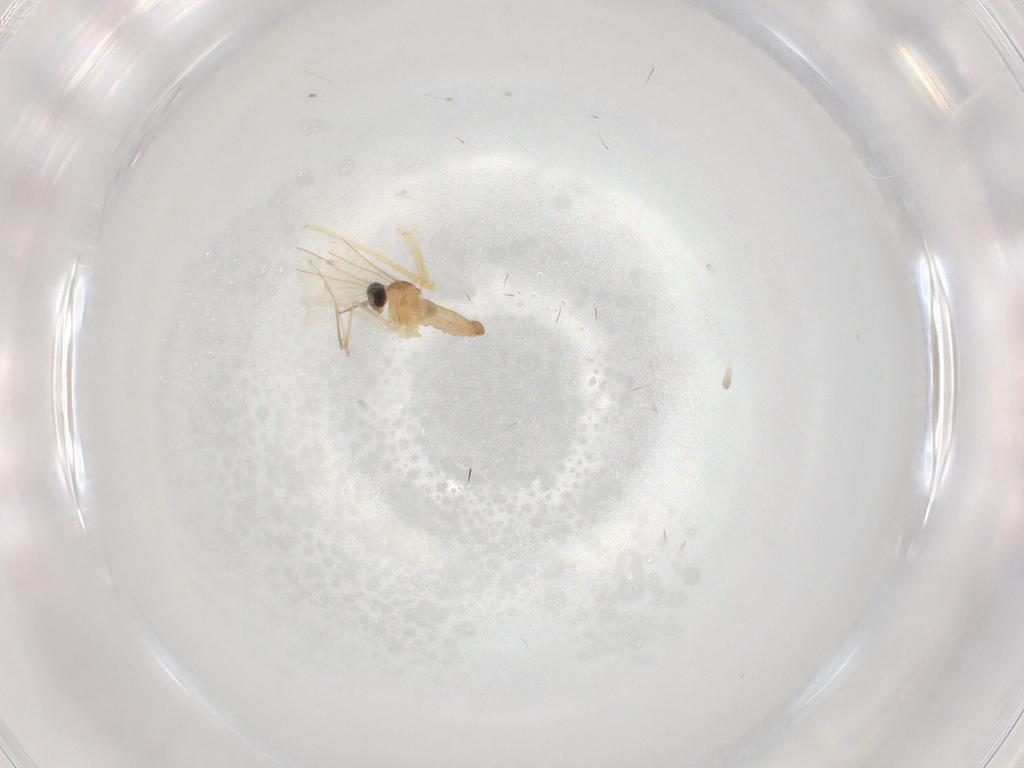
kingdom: Animalia
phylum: Arthropoda
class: Insecta
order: Diptera
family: Cecidomyiidae
